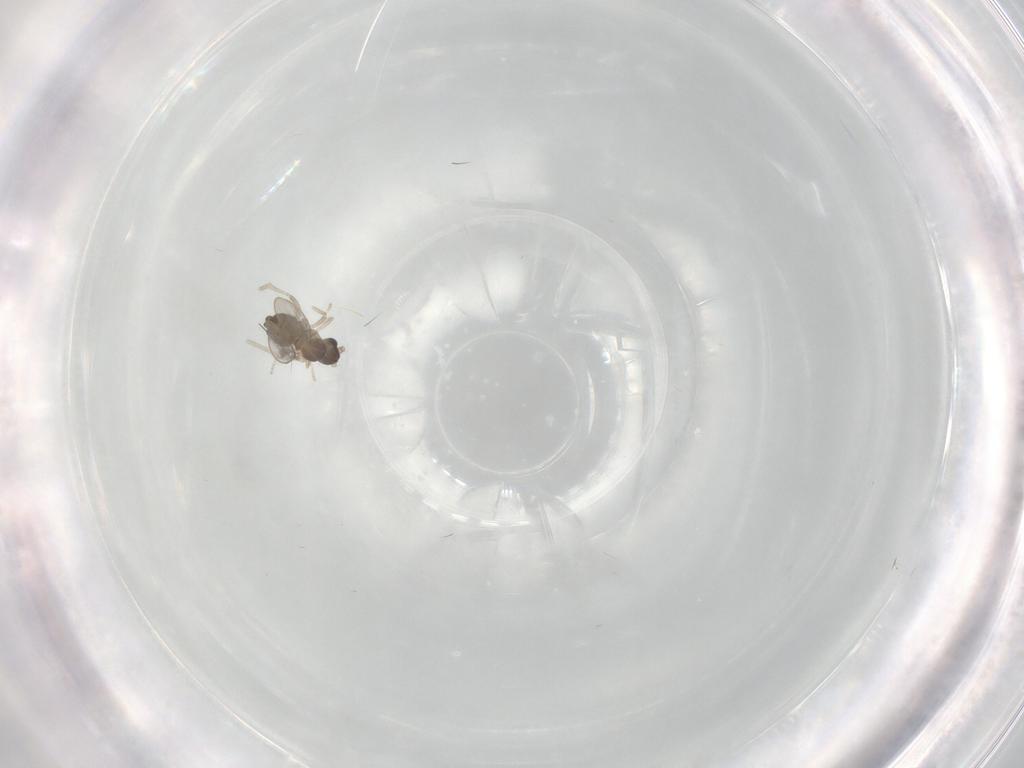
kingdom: Animalia
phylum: Arthropoda
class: Insecta
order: Diptera
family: Cecidomyiidae
